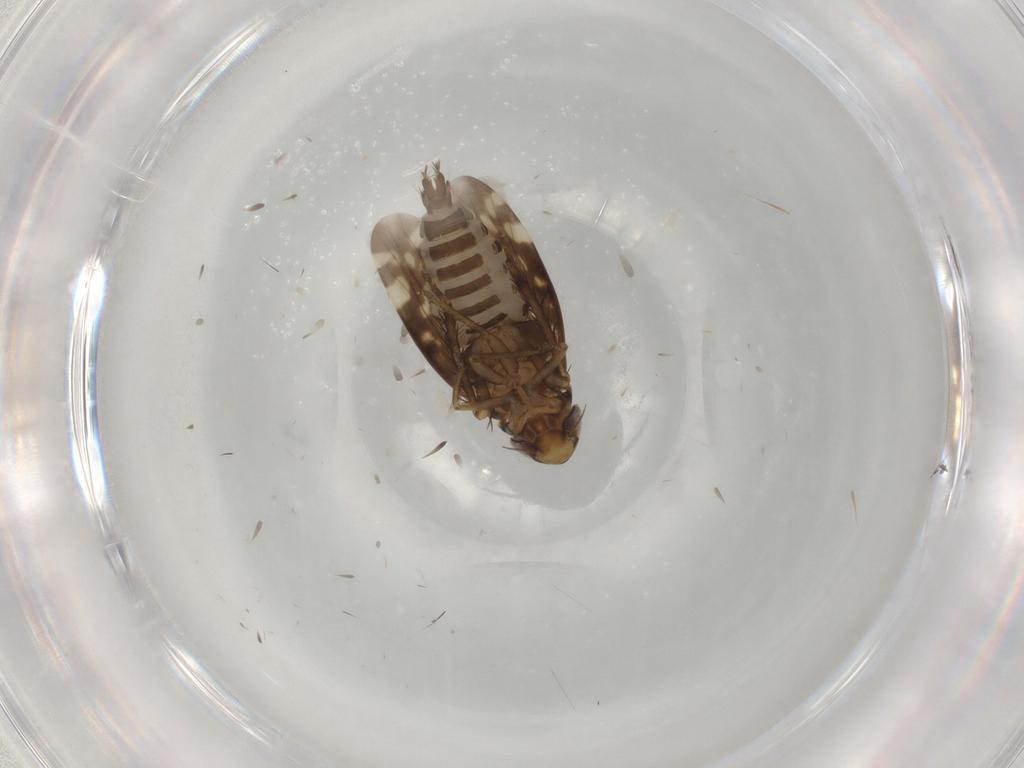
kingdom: Animalia
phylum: Arthropoda
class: Insecta
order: Hemiptera
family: Cicadellidae
